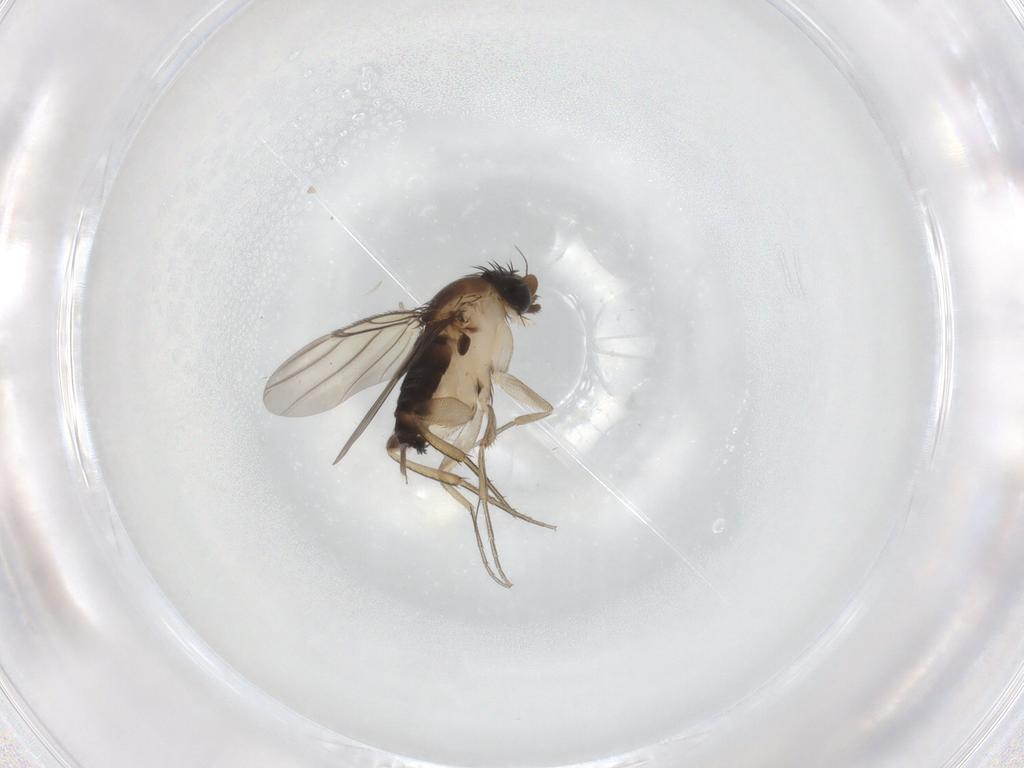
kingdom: Animalia
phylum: Arthropoda
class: Insecta
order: Diptera
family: Phoridae
